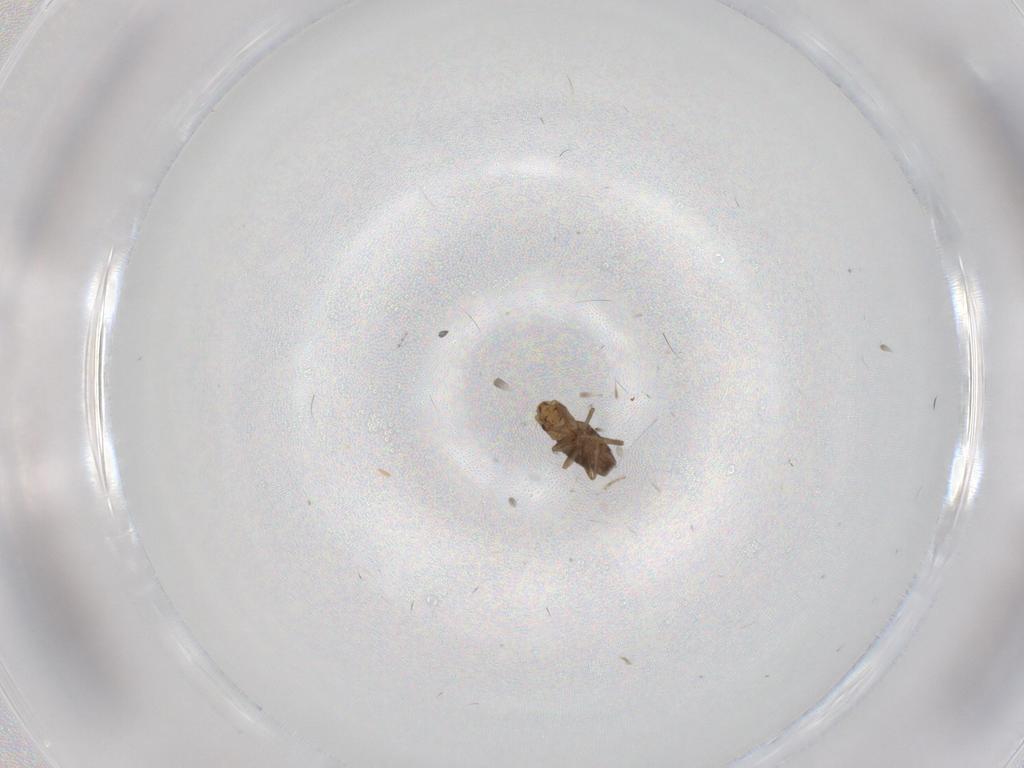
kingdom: Animalia
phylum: Arthropoda
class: Insecta
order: Diptera
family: Cecidomyiidae
